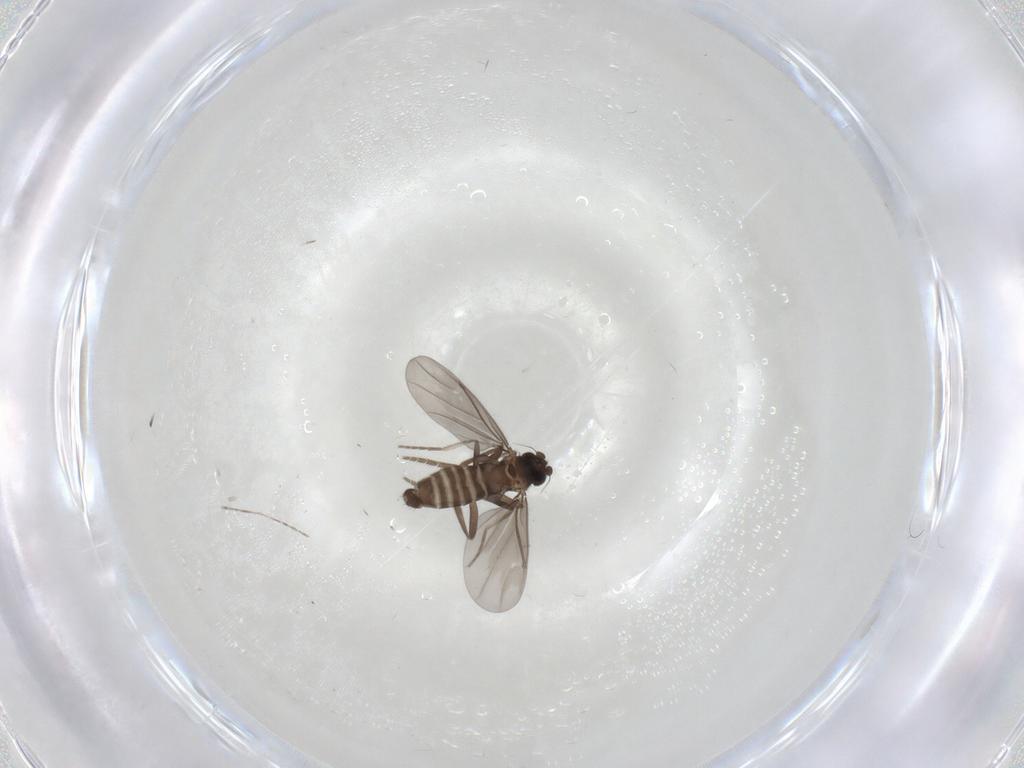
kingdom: Animalia
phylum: Arthropoda
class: Insecta
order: Diptera
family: Phoridae
